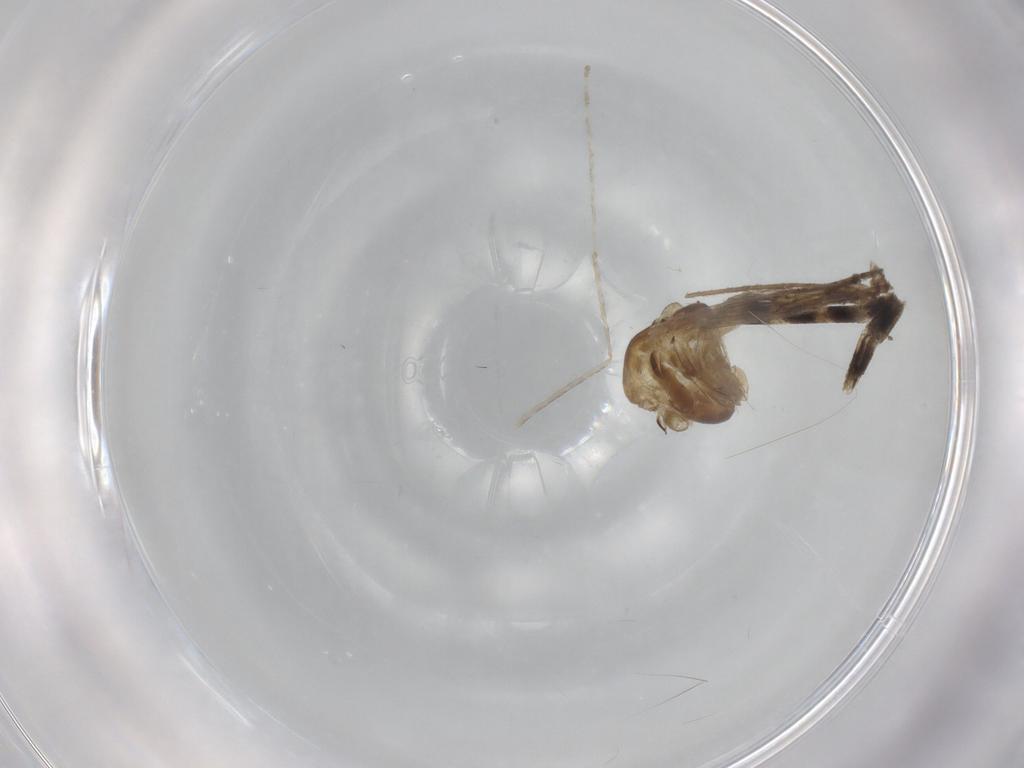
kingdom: Animalia
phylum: Arthropoda
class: Insecta
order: Diptera
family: Chironomidae
